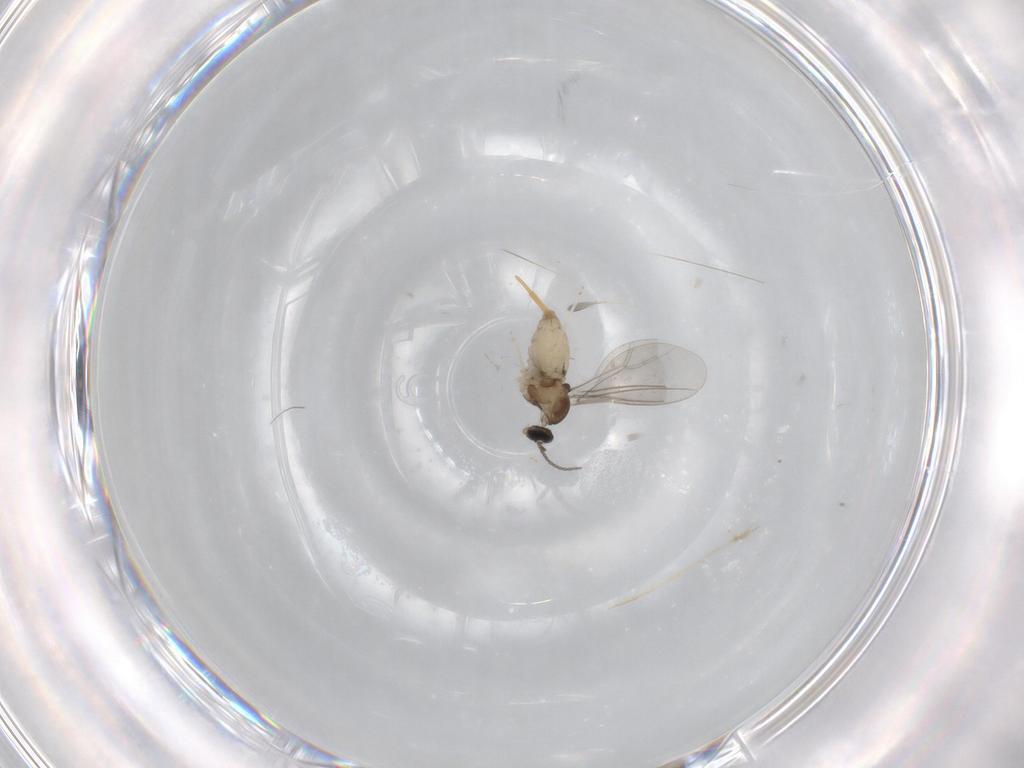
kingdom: Animalia
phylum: Arthropoda
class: Insecta
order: Diptera
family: Cecidomyiidae
